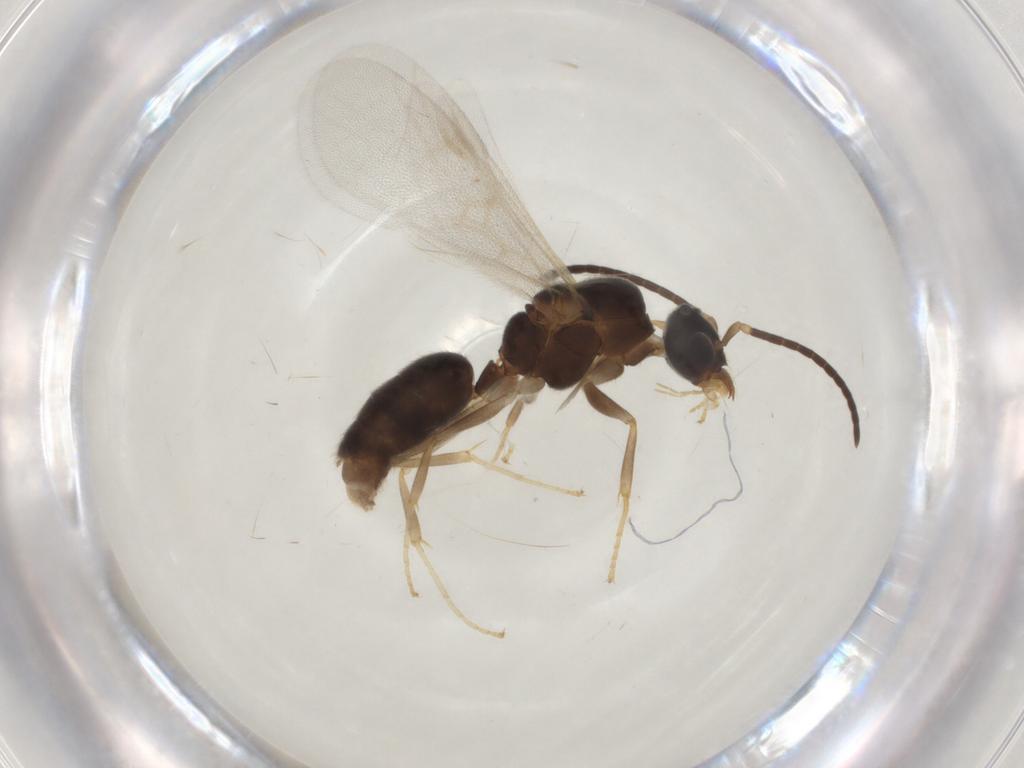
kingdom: Animalia
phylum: Arthropoda
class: Insecta
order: Hymenoptera
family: Formicidae
